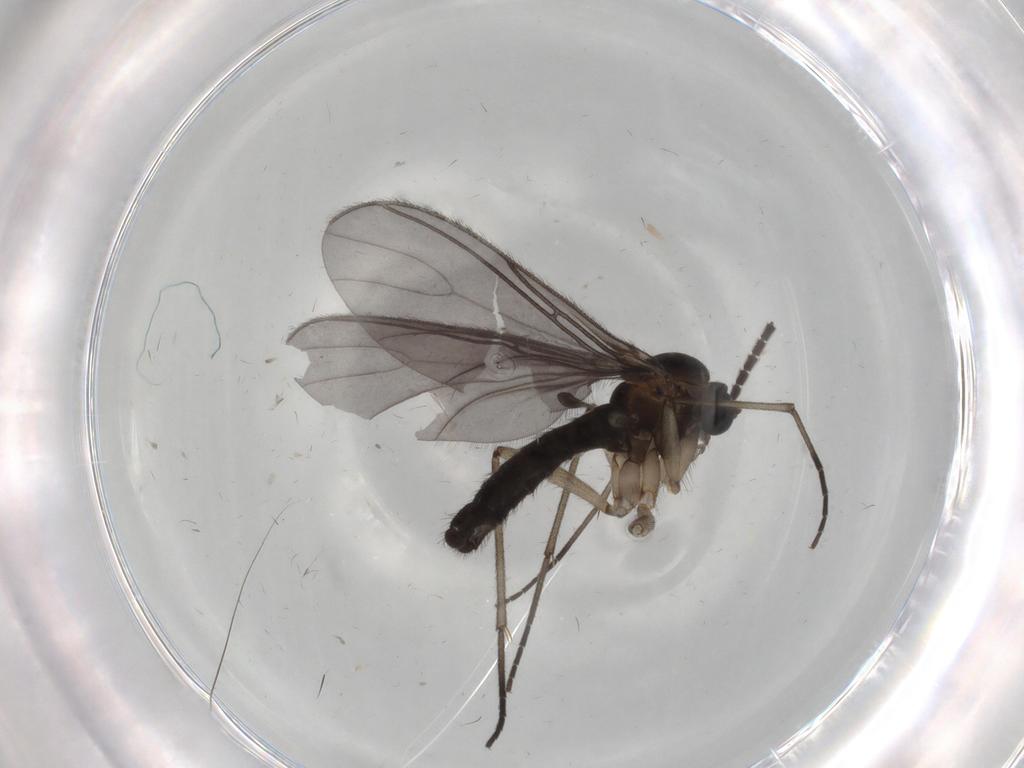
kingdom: Animalia
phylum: Arthropoda
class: Insecta
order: Diptera
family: Sciaridae
